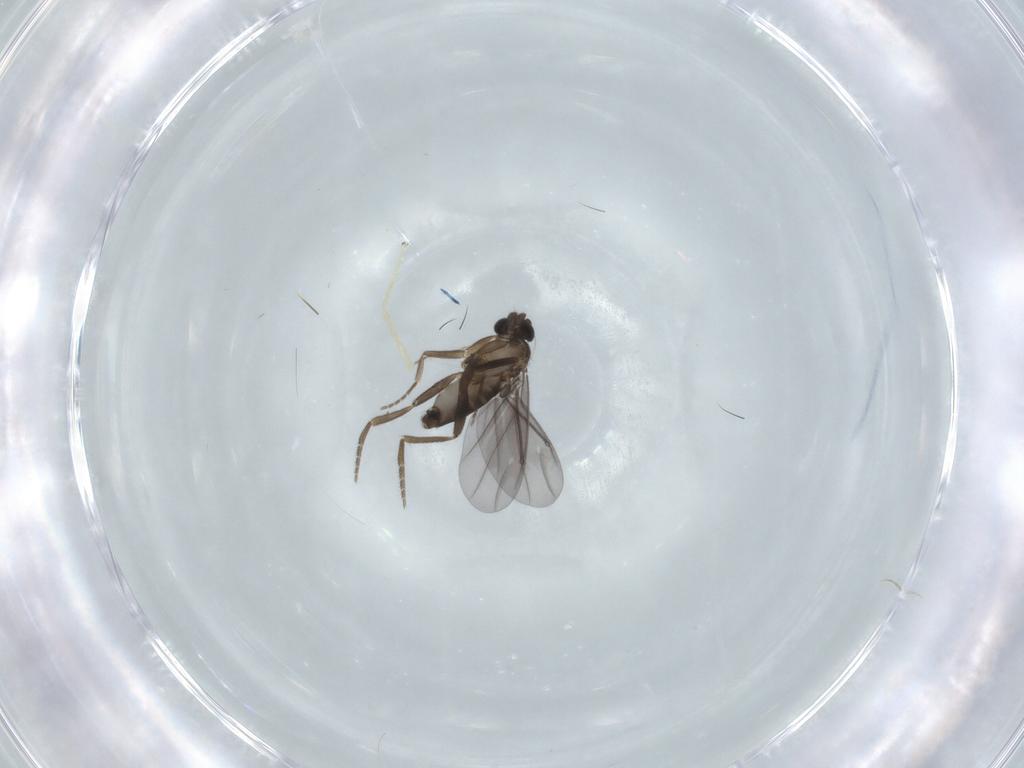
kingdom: Animalia
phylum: Arthropoda
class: Insecta
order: Diptera
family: Chironomidae
